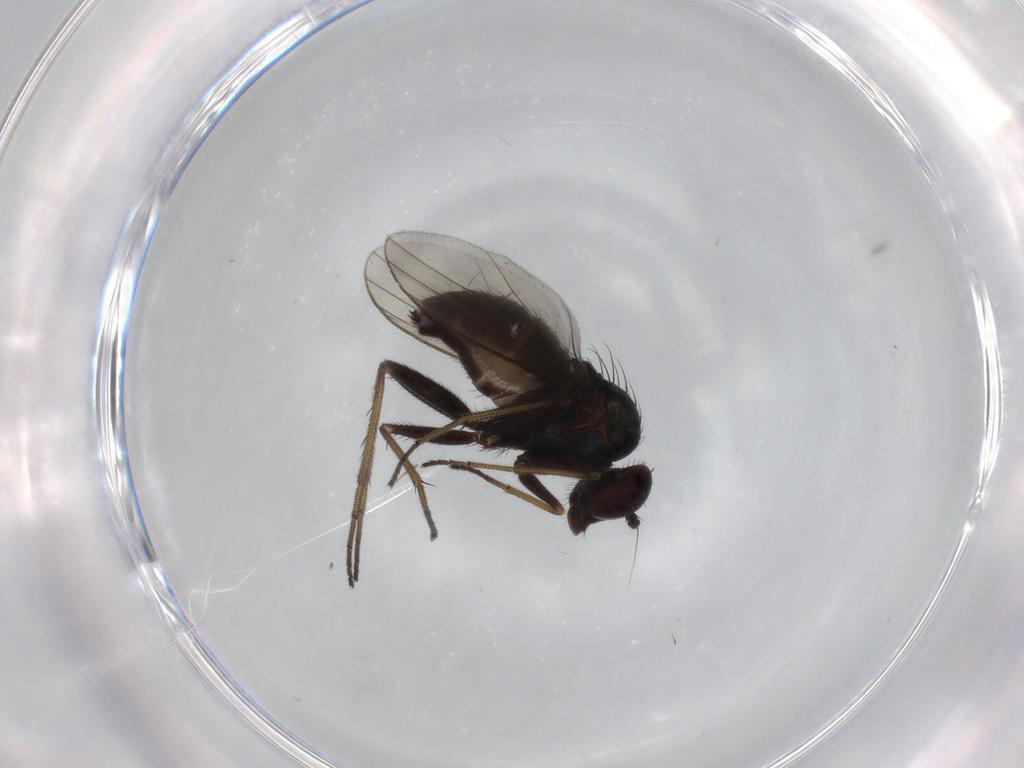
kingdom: Animalia
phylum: Arthropoda
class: Insecta
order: Diptera
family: Dolichopodidae
